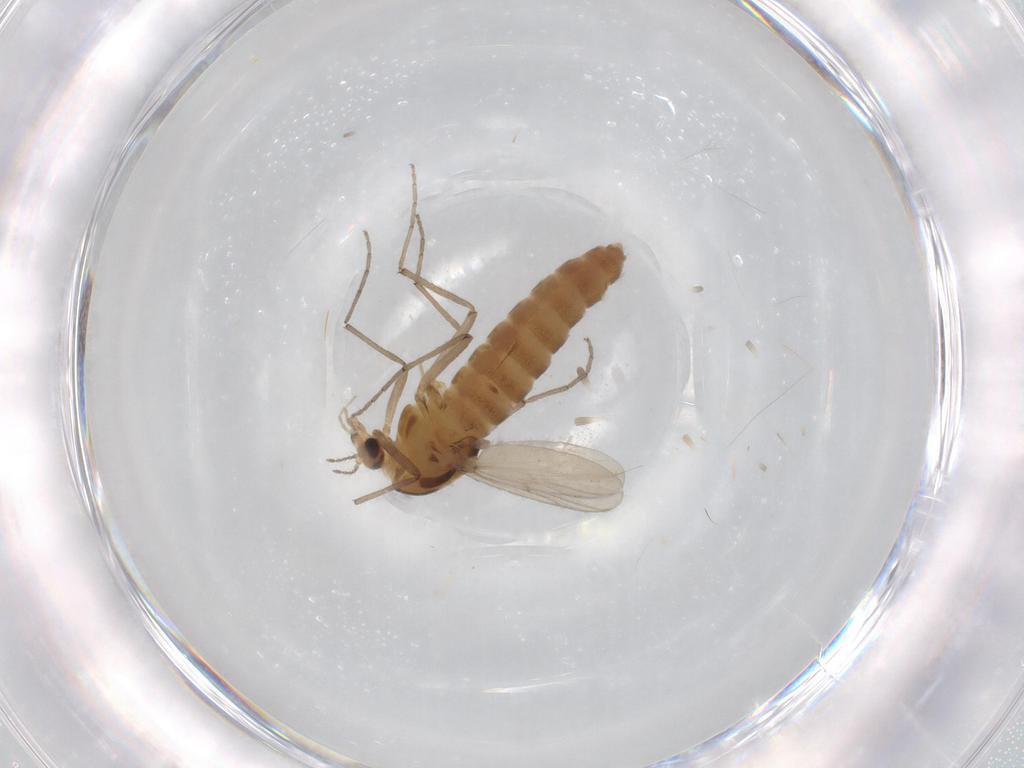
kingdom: Animalia
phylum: Arthropoda
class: Insecta
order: Diptera
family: Chironomidae
